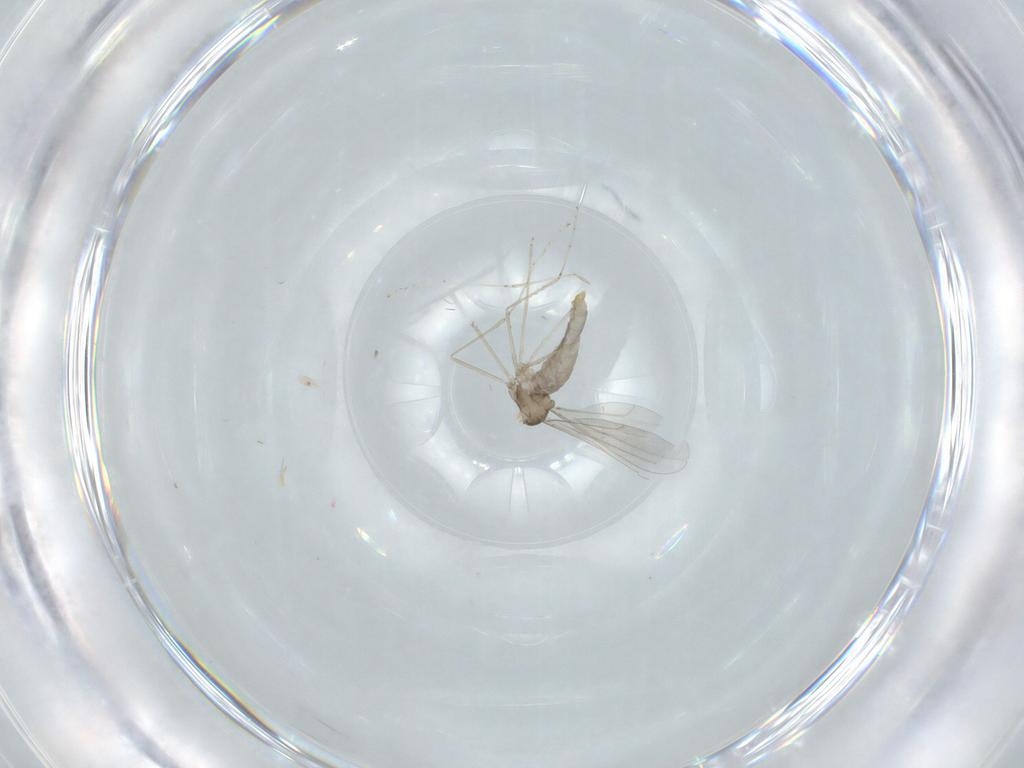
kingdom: Animalia
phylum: Arthropoda
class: Insecta
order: Diptera
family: Cecidomyiidae
